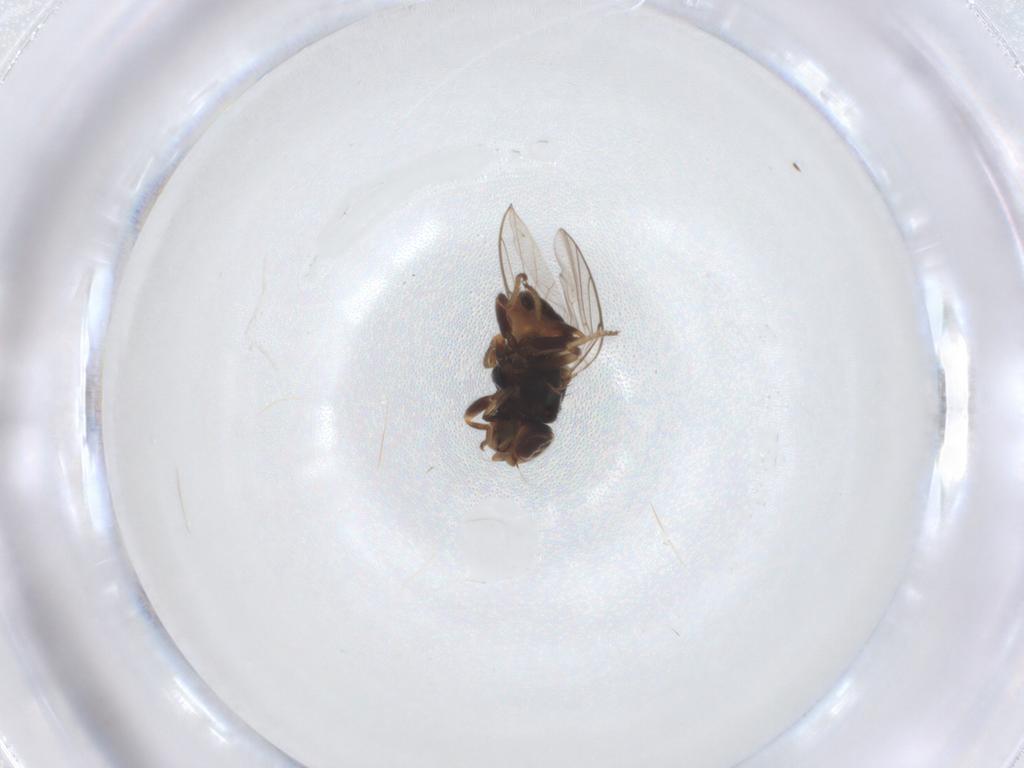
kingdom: Animalia
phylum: Arthropoda
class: Insecta
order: Diptera
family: Chloropidae
